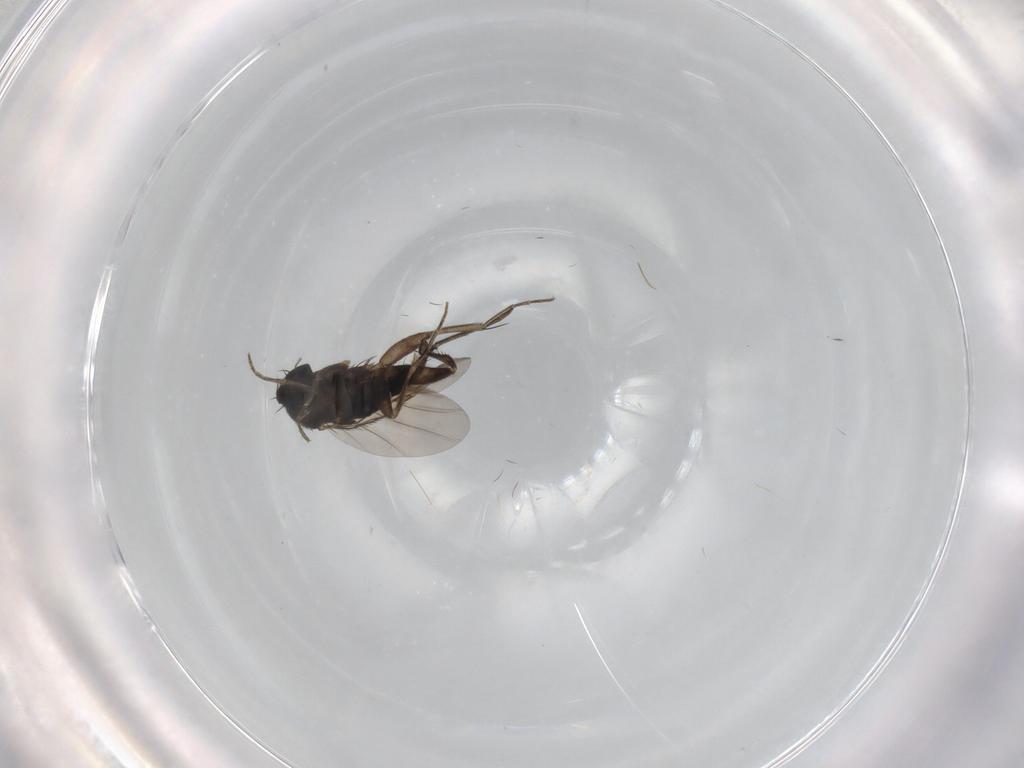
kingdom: Animalia
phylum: Arthropoda
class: Insecta
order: Diptera
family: Phoridae
